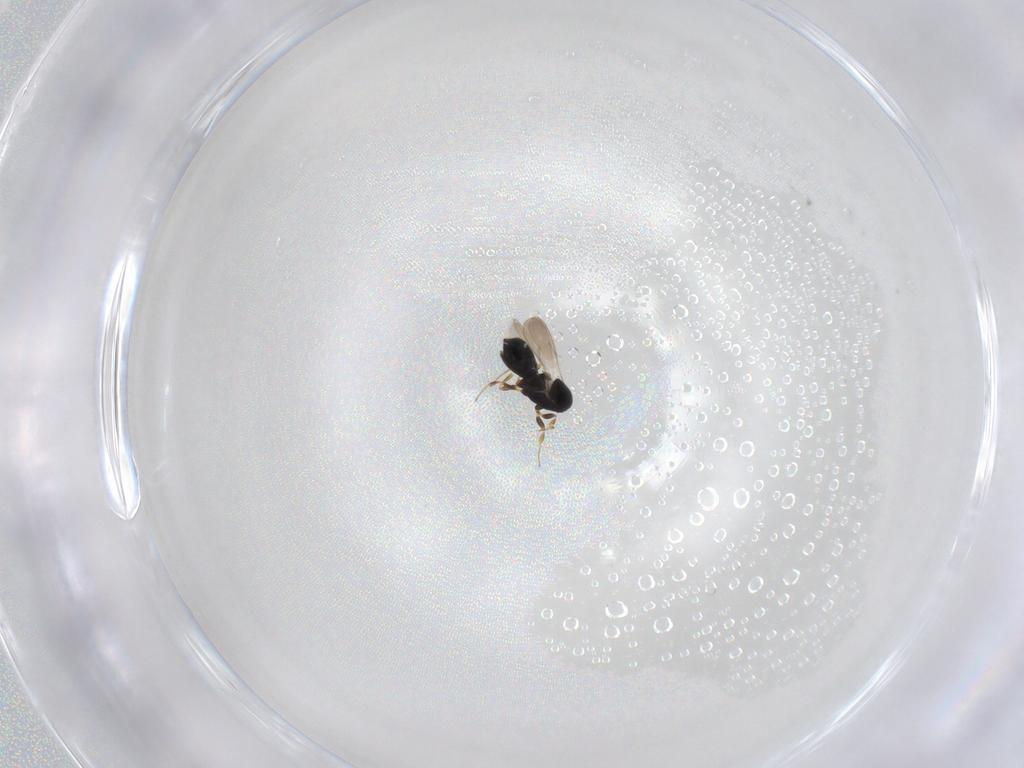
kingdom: Animalia
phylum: Arthropoda
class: Insecta
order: Hymenoptera
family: Scelionidae
